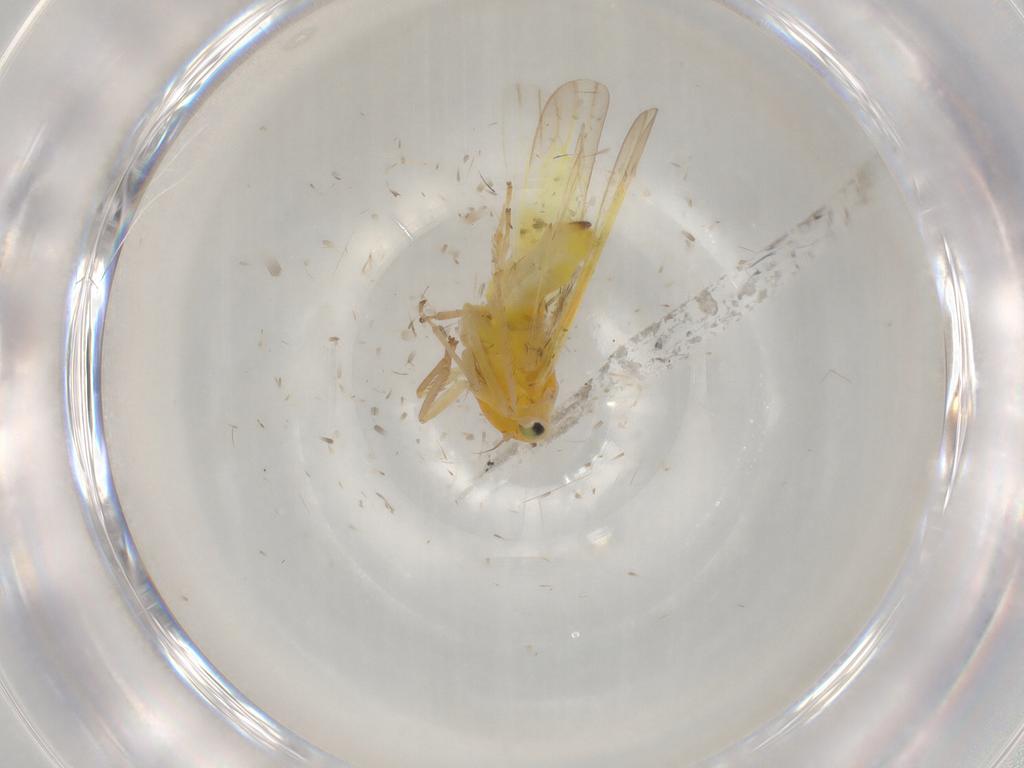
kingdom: Animalia
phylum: Arthropoda
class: Insecta
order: Hemiptera
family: Cicadellidae
